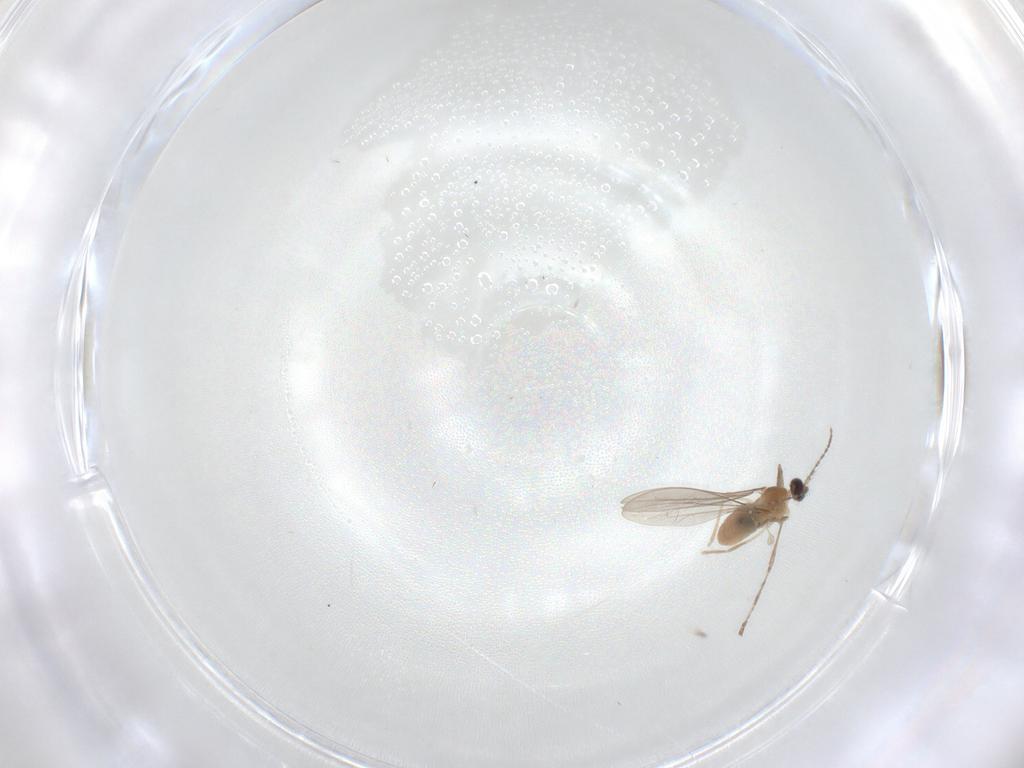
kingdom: Animalia
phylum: Arthropoda
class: Insecta
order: Diptera
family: Cecidomyiidae
